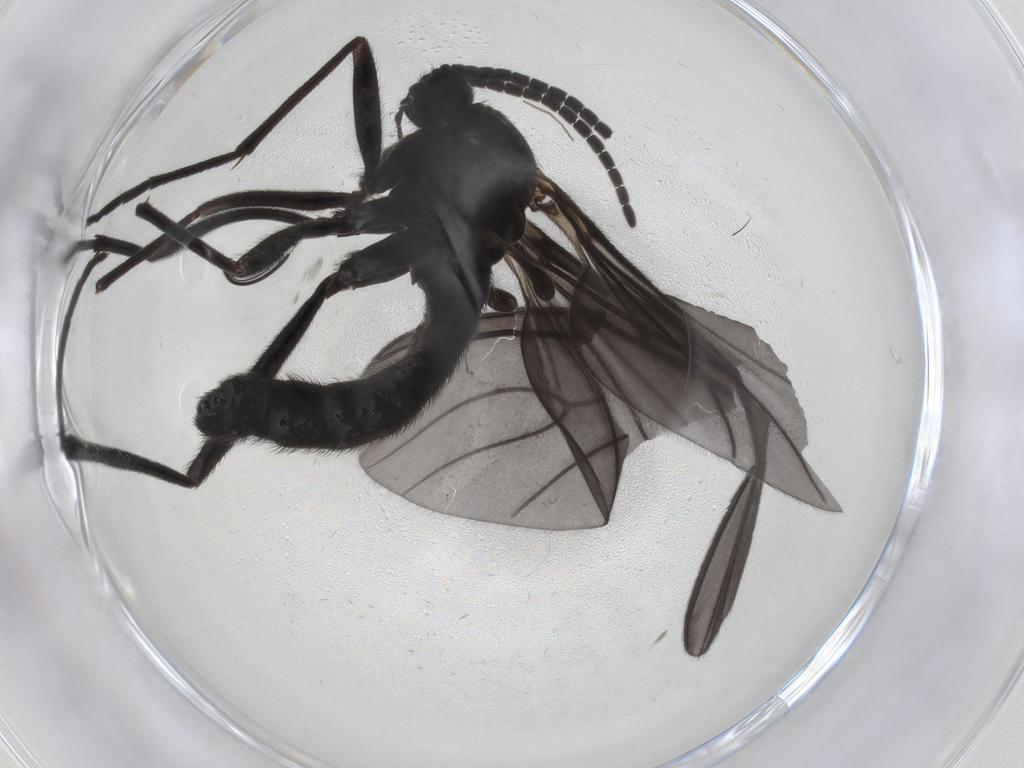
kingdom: Animalia
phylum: Arthropoda
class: Insecta
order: Diptera
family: Sciaridae
